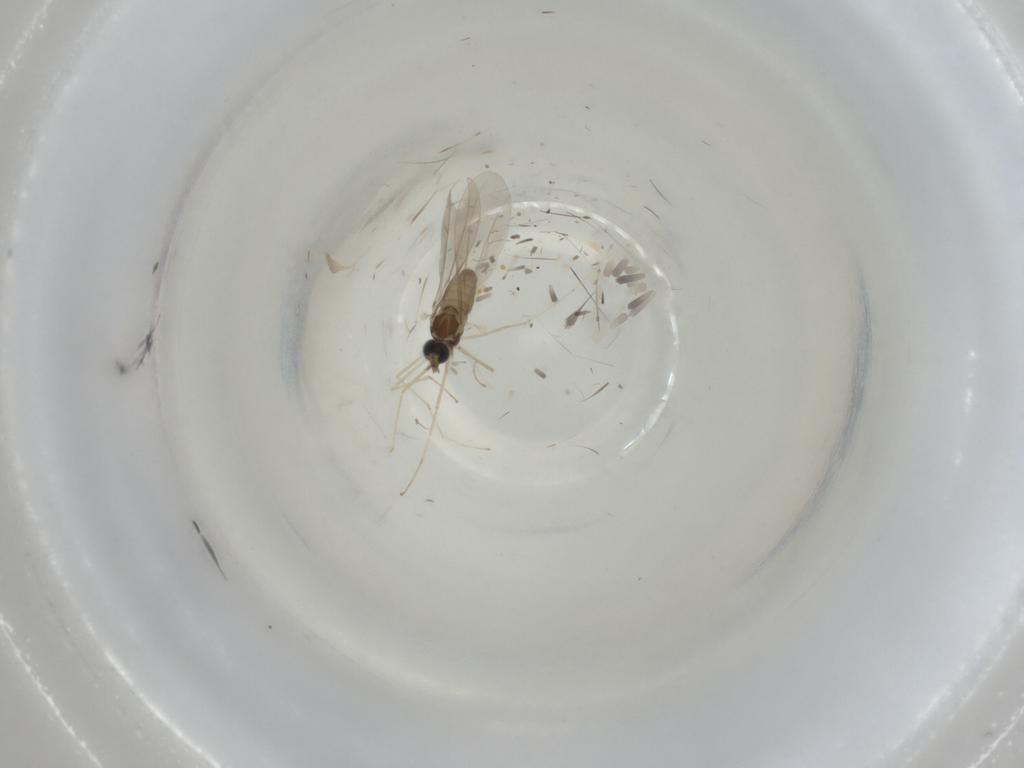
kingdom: Animalia
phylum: Arthropoda
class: Insecta
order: Diptera
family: Cecidomyiidae
